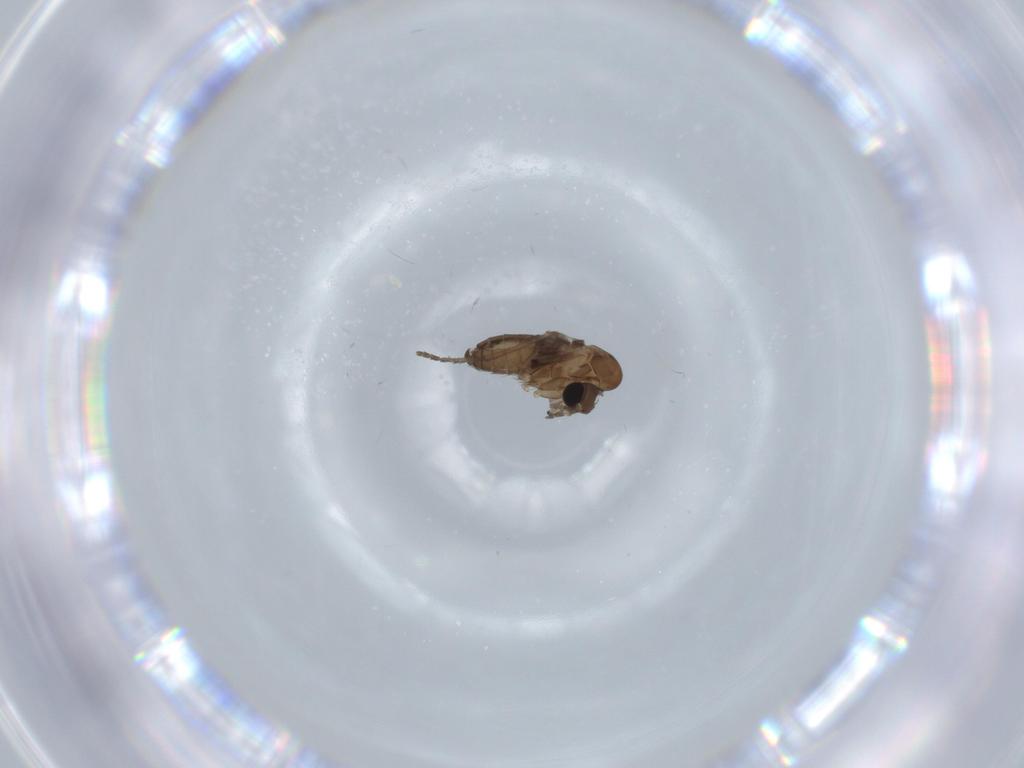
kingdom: Animalia
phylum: Arthropoda
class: Insecta
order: Diptera
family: Psychodidae
